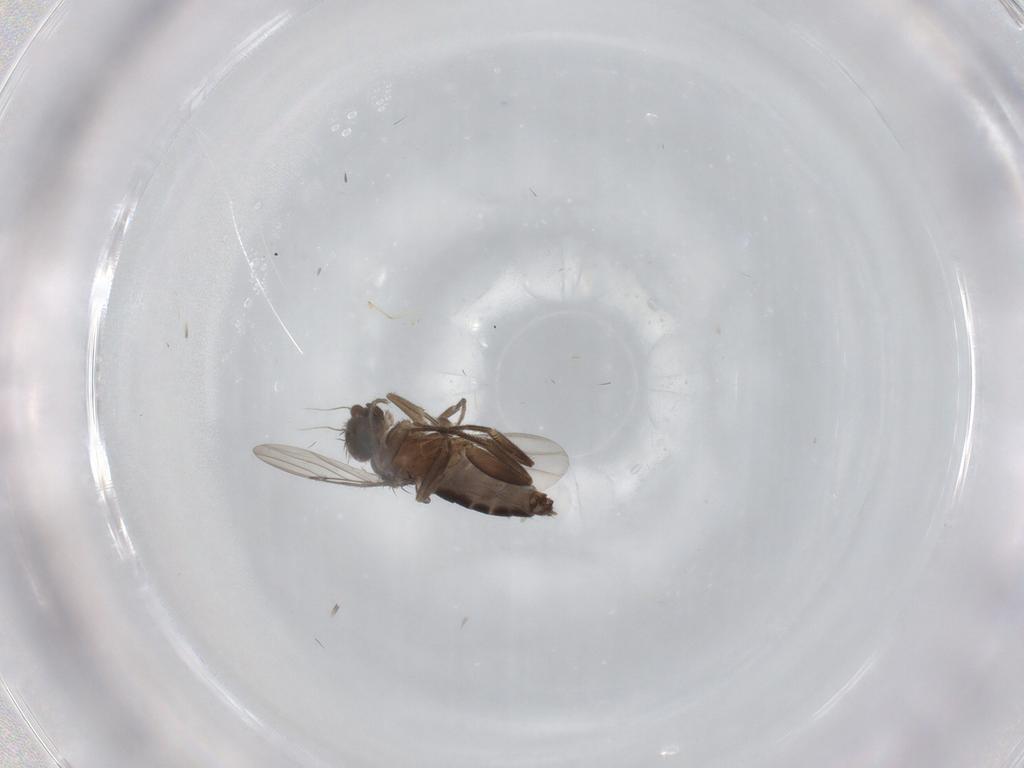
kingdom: Animalia
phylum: Arthropoda
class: Insecta
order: Diptera
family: Phoridae
